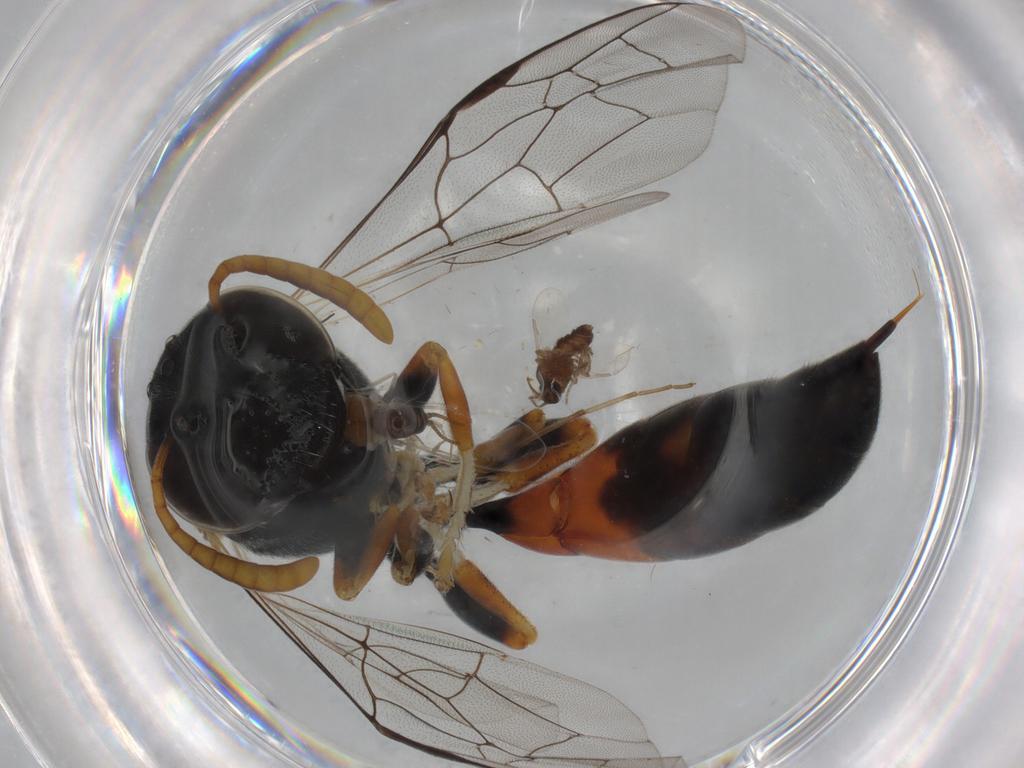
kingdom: Animalia
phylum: Arthropoda
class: Insecta
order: Hymenoptera
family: Crabronidae
